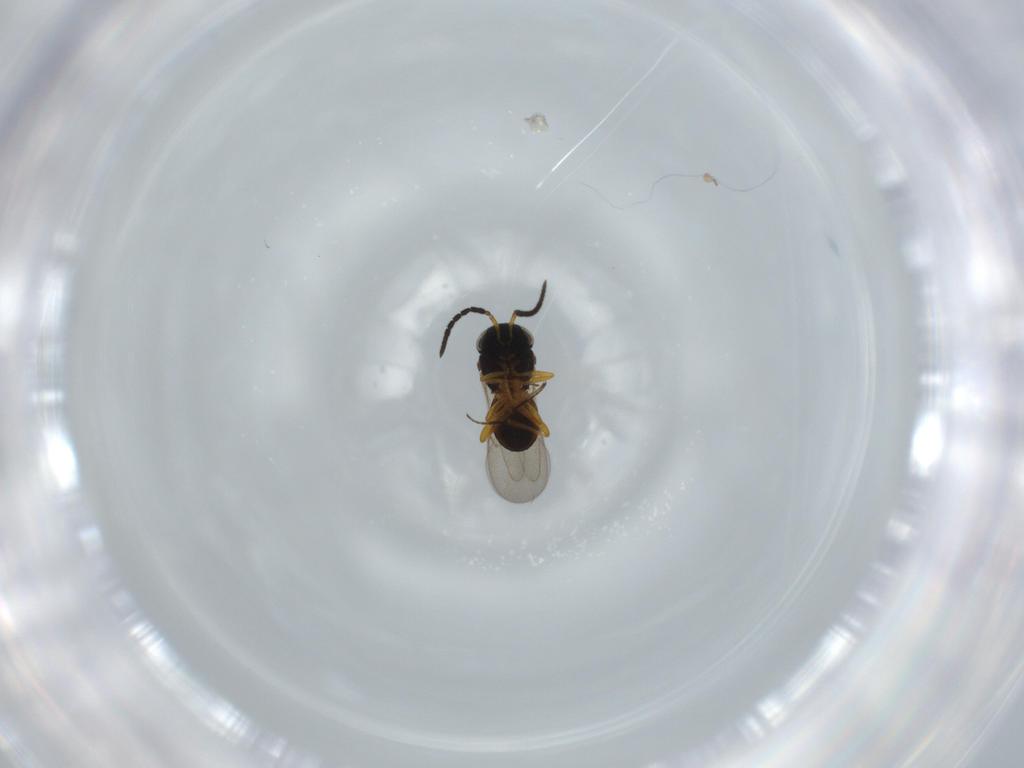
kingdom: Animalia
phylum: Arthropoda
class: Insecta
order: Coleoptera
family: Curculionidae
